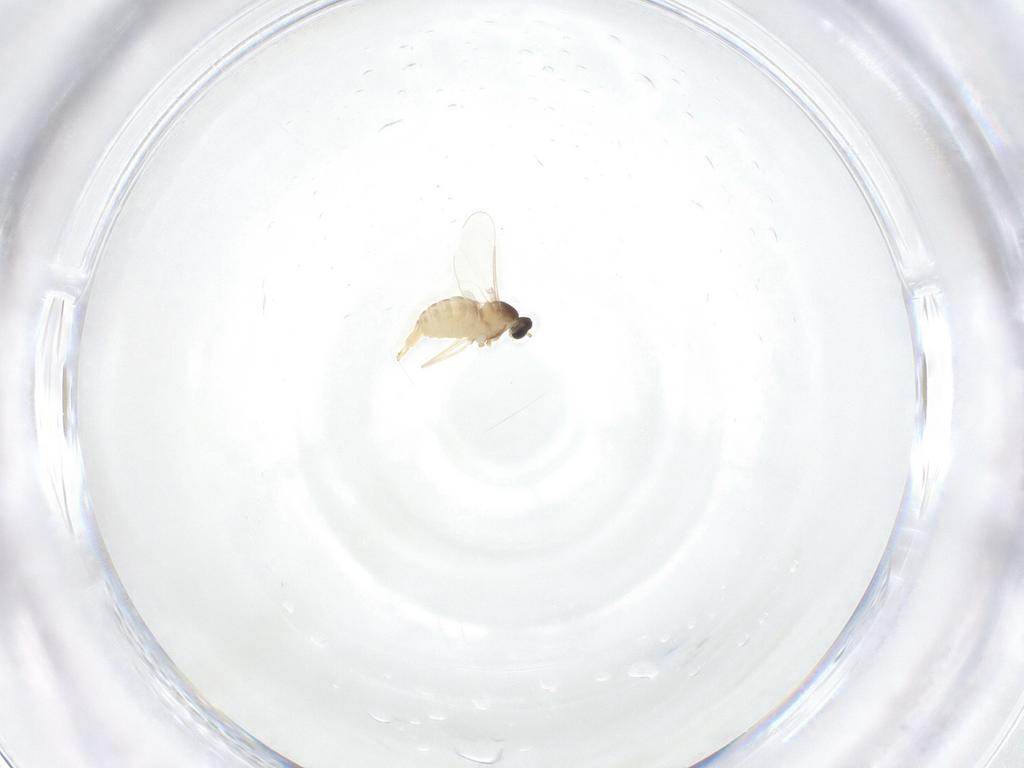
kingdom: Animalia
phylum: Arthropoda
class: Insecta
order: Diptera
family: Cecidomyiidae
